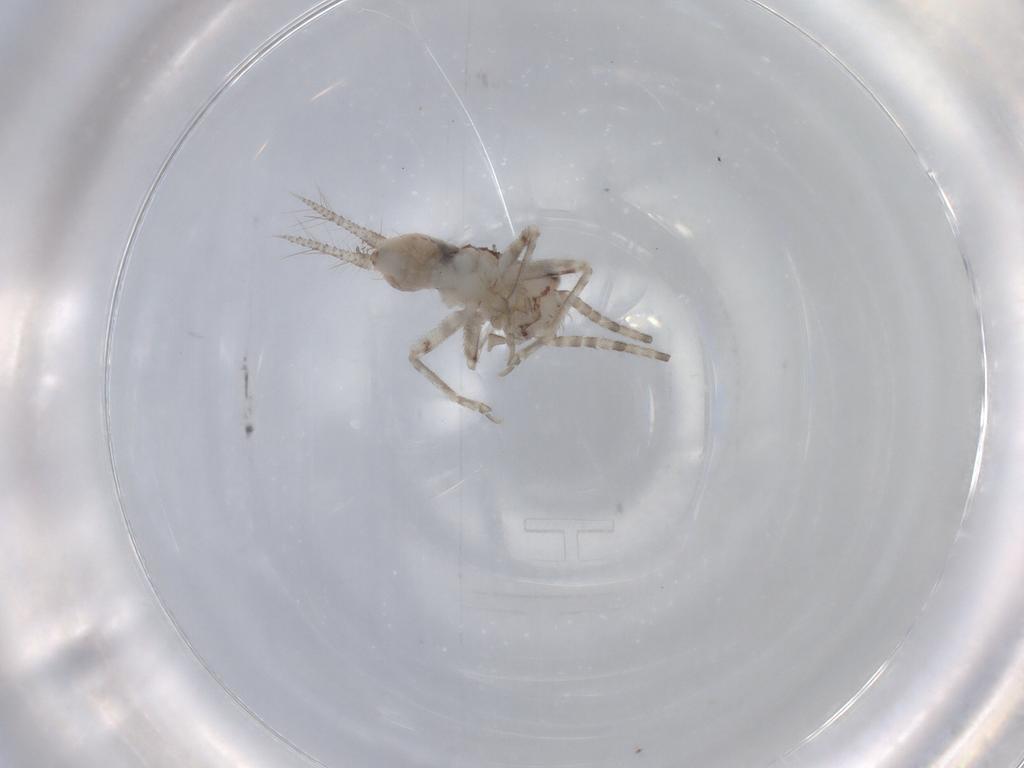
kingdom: Animalia
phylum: Arthropoda
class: Insecta
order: Orthoptera
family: Trigonidiidae
